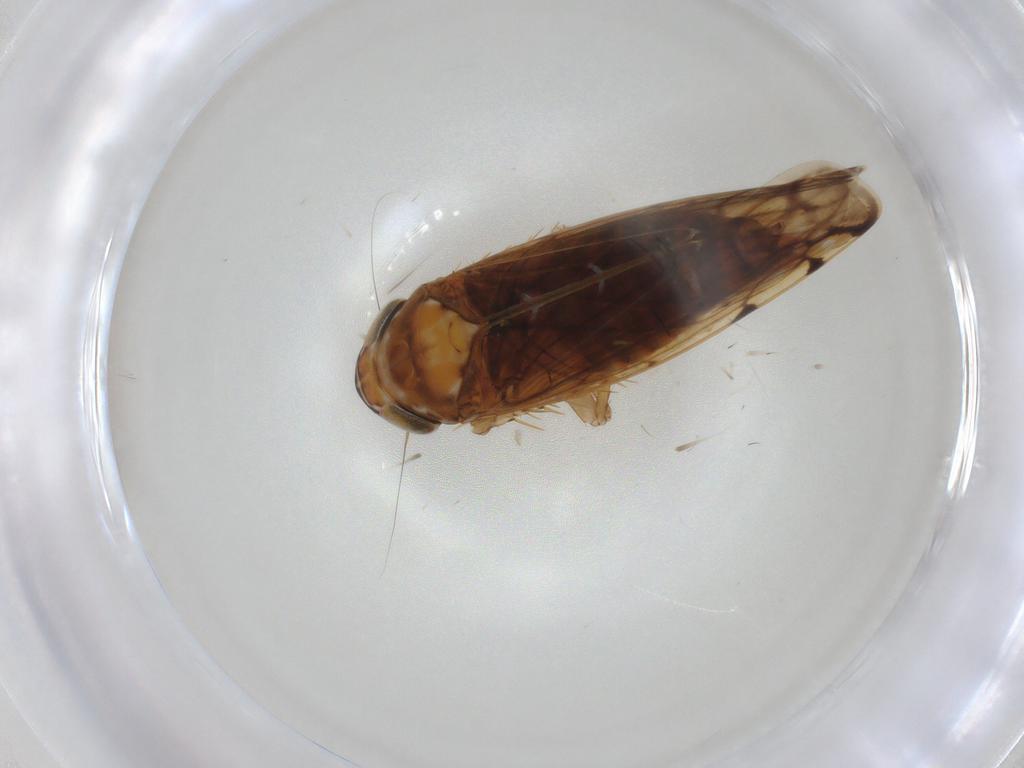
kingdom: Animalia
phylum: Arthropoda
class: Insecta
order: Hemiptera
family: Cicadellidae
